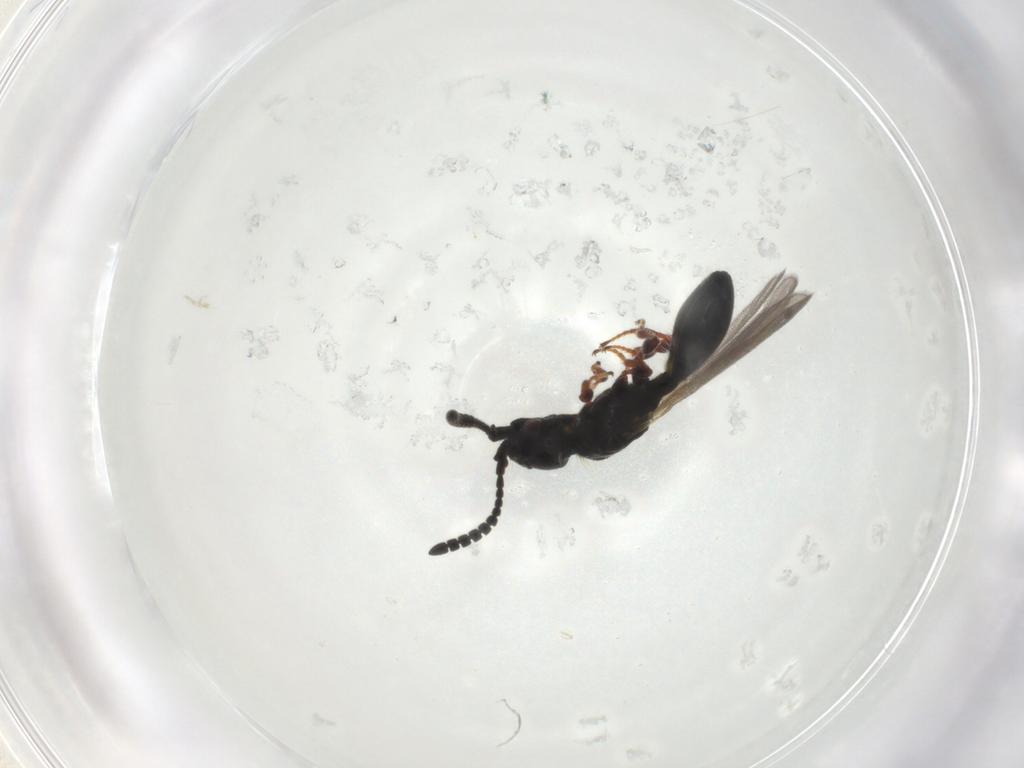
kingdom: Animalia
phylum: Arthropoda
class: Insecta
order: Hymenoptera
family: Diapriidae
